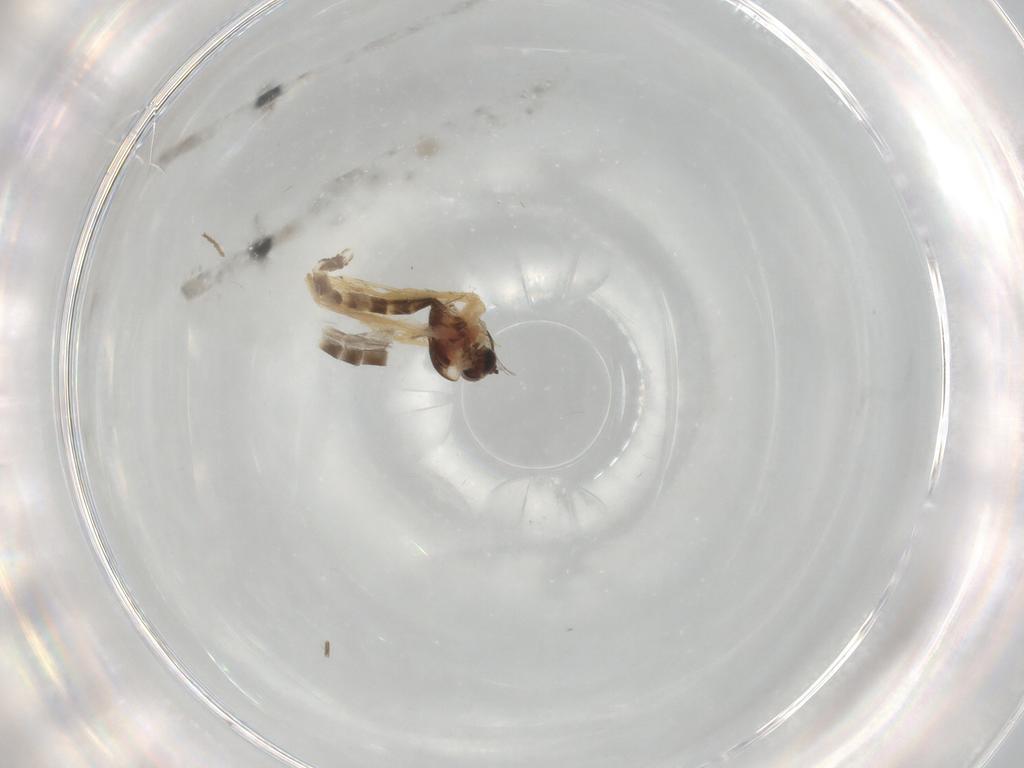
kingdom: Animalia
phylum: Arthropoda
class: Insecta
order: Diptera
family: Chironomidae
